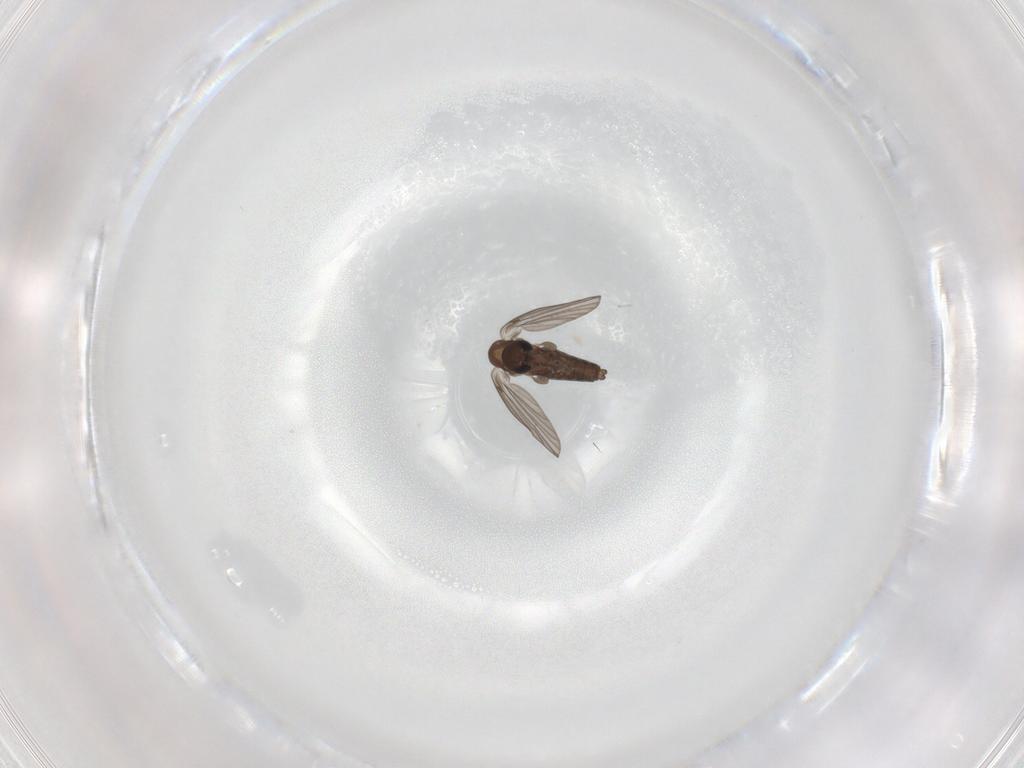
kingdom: Animalia
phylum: Arthropoda
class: Insecta
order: Diptera
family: Cecidomyiidae
